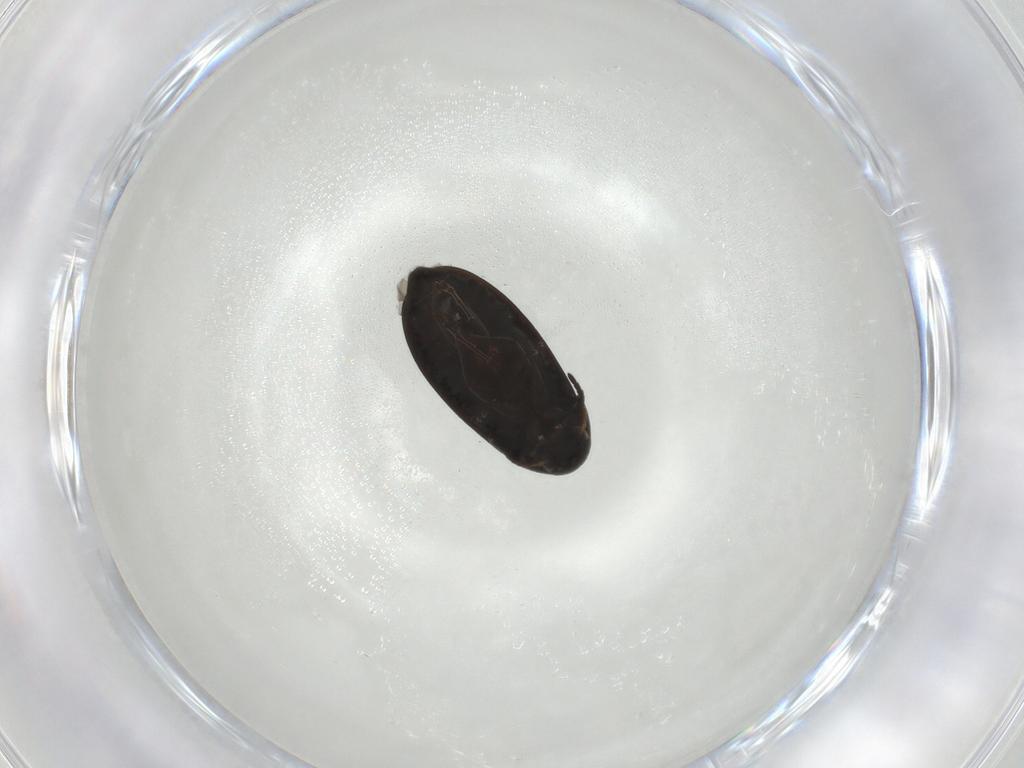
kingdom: Animalia
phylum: Arthropoda
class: Insecta
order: Coleoptera
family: Scraptiidae
